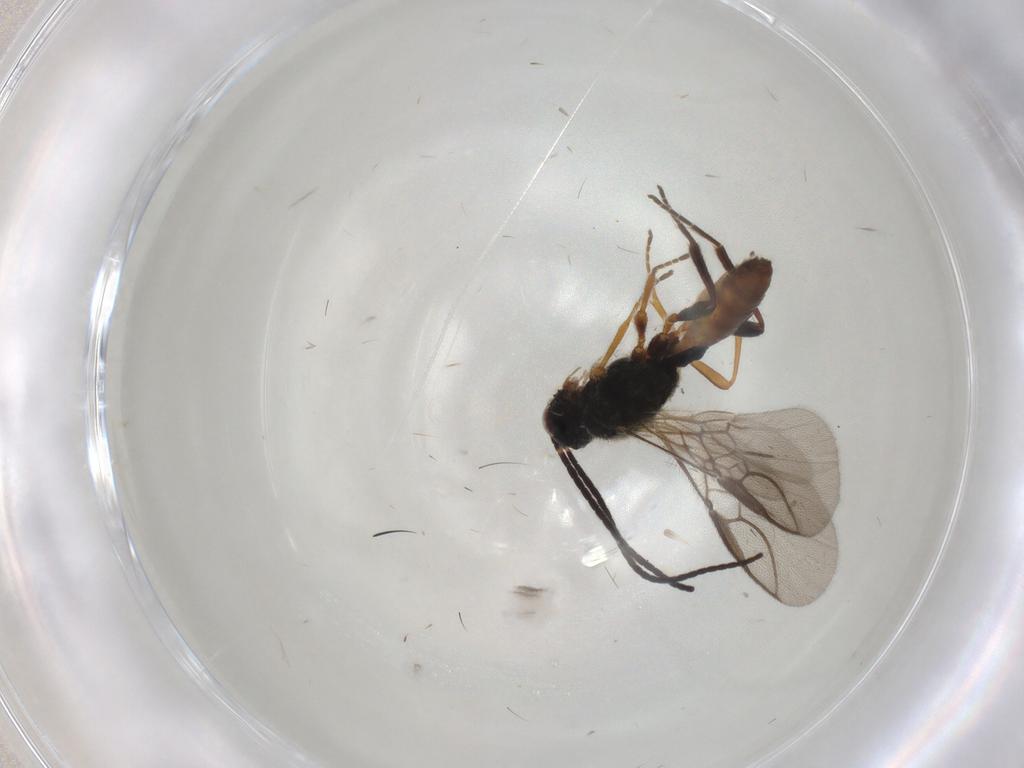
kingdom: Animalia
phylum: Arthropoda
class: Insecta
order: Hymenoptera
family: Braconidae
